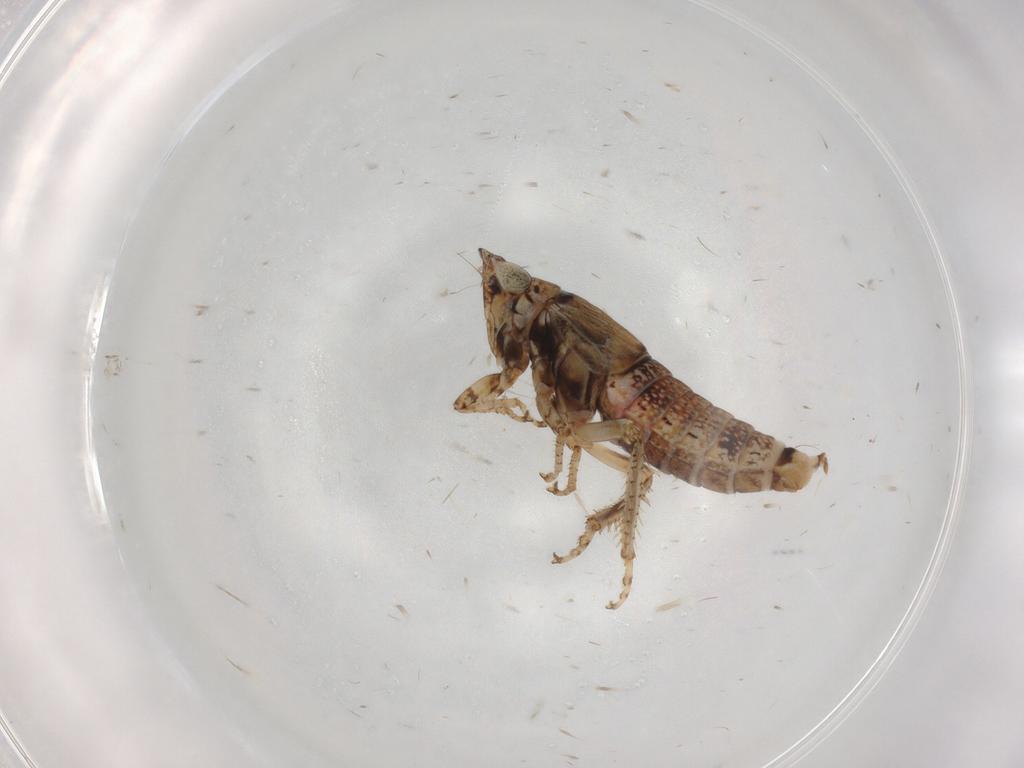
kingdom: Animalia
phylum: Arthropoda
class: Insecta
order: Hemiptera
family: Cicadellidae
